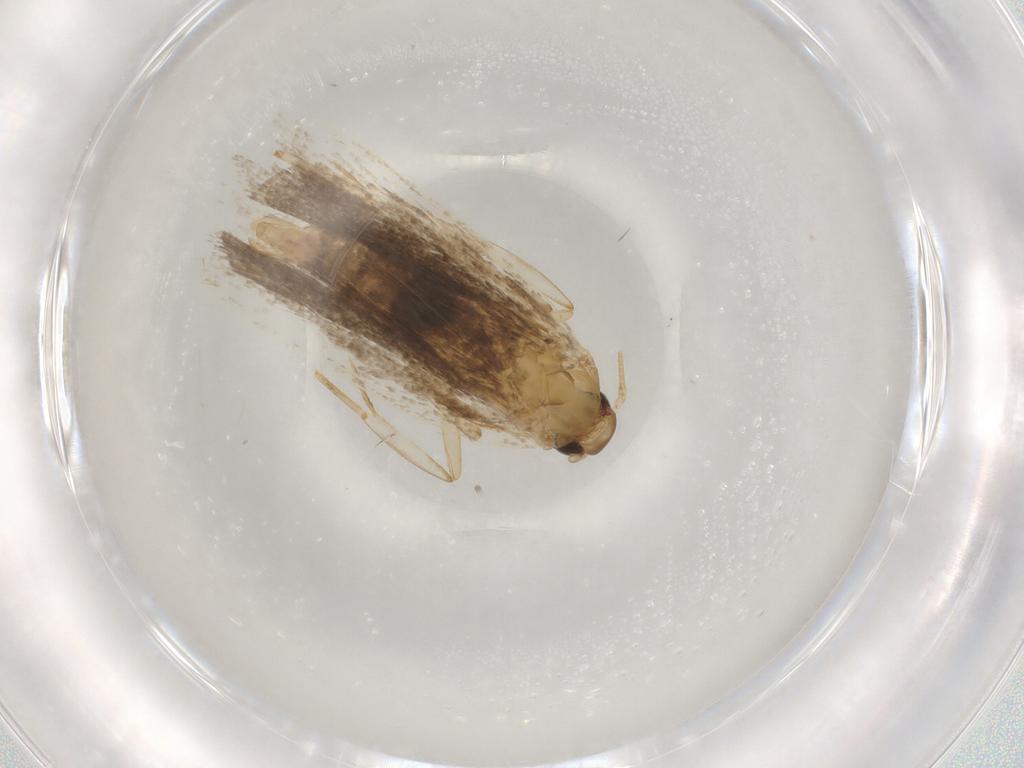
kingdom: Animalia
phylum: Arthropoda
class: Insecta
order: Lepidoptera
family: Gelechiidae
